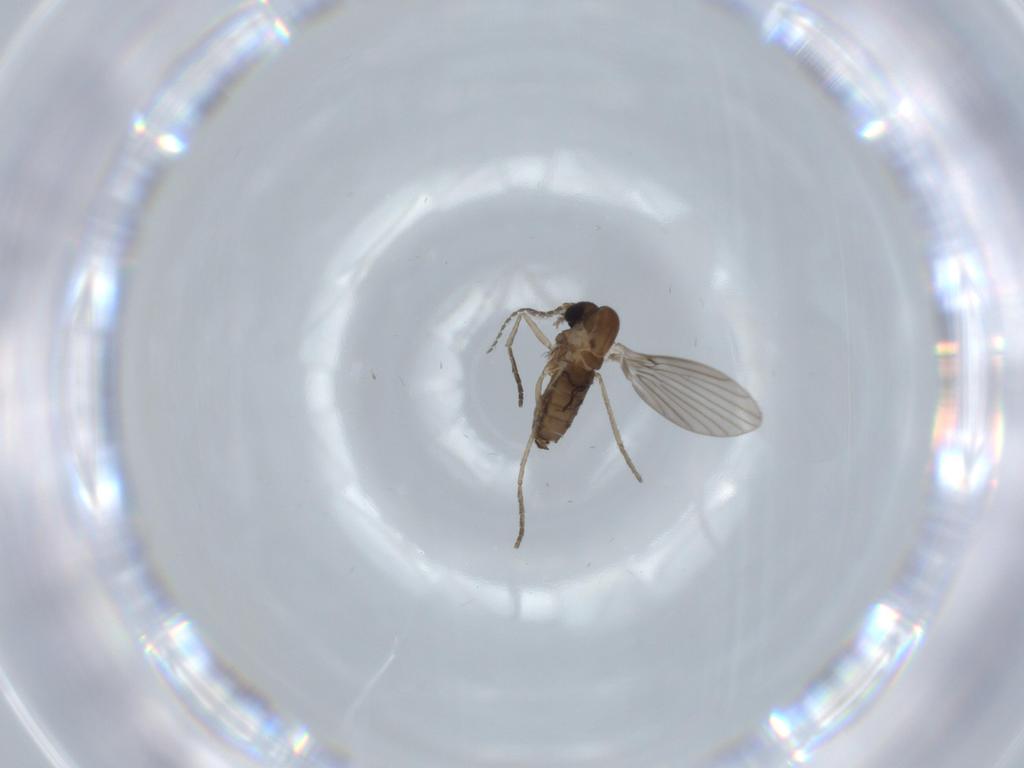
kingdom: Animalia
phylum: Arthropoda
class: Insecta
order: Diptera
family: Psychodidae
